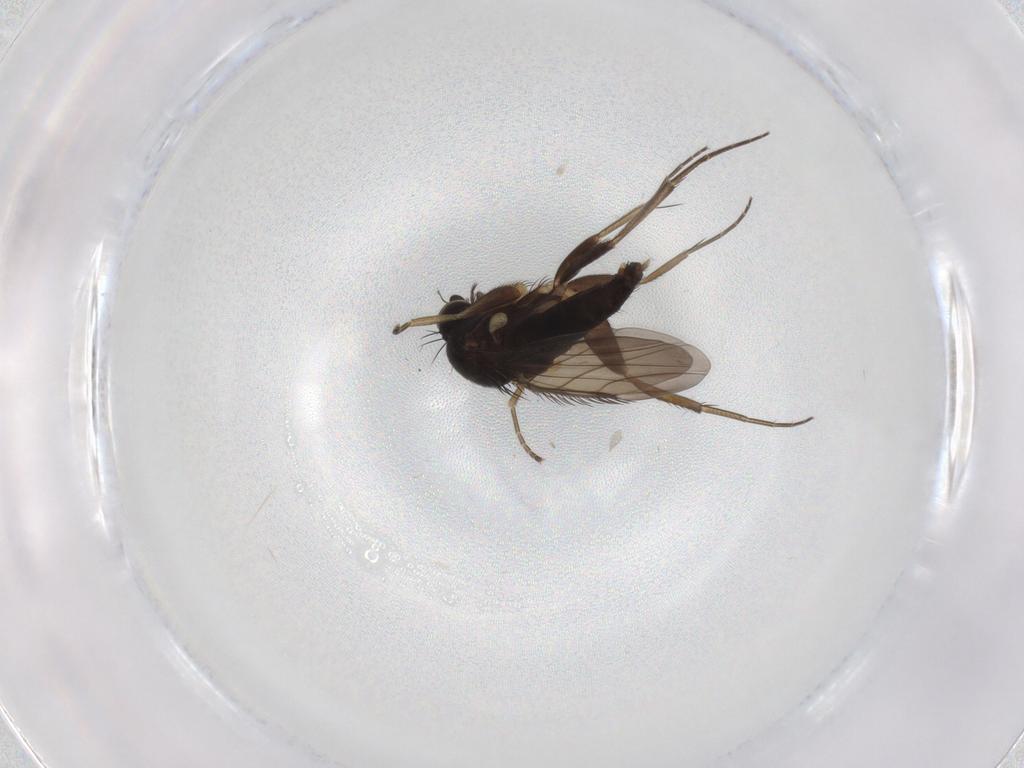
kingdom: Animalia
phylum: Arthropoda
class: Insecta
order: Diptera
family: Phoridae
